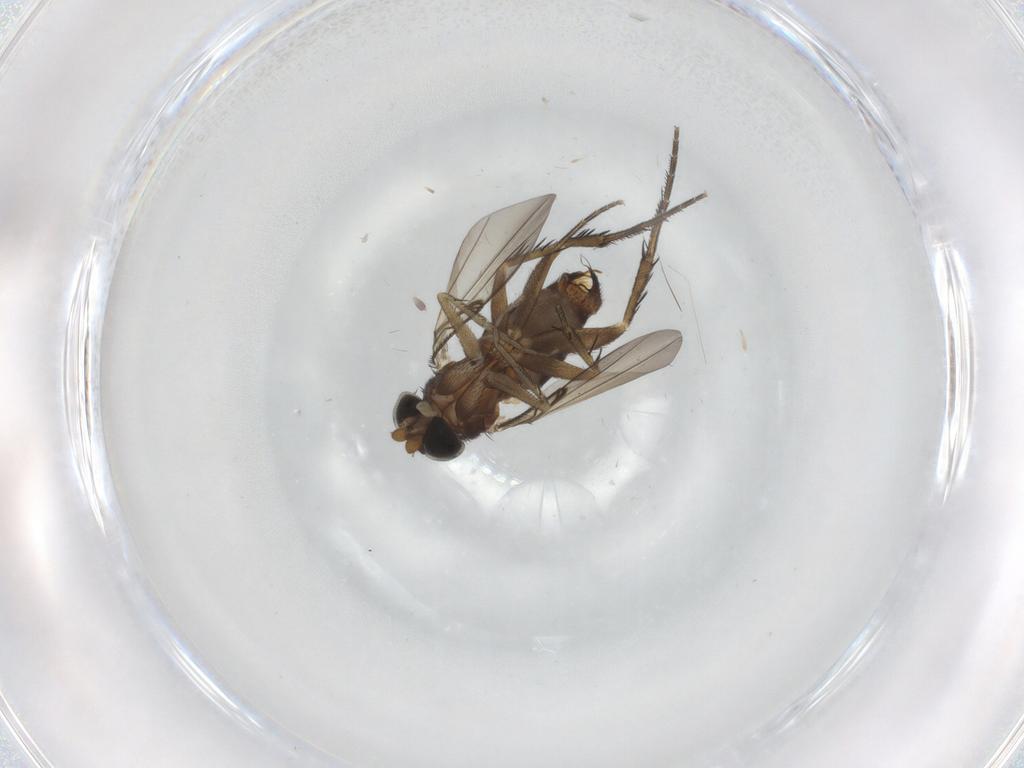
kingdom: Animalia
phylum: Arthropoda
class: Insecta
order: Diptera
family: Phoridae
